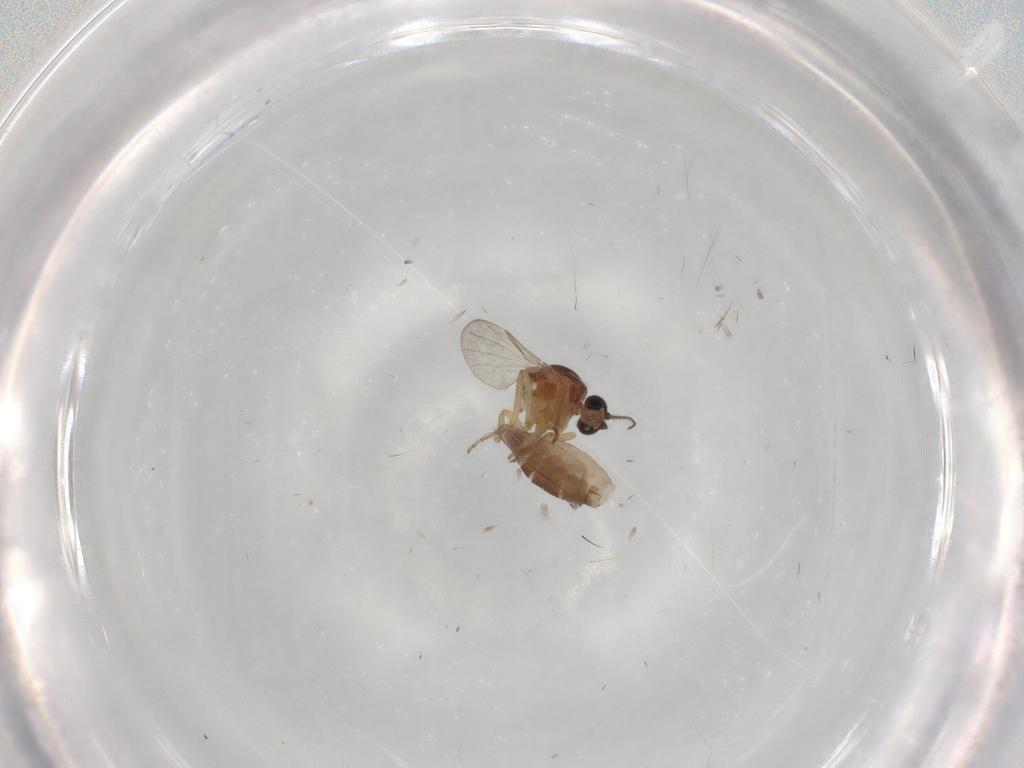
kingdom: Animalia
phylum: Arthropoda
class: Insecta
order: Diptera
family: Ceratopogonidae
